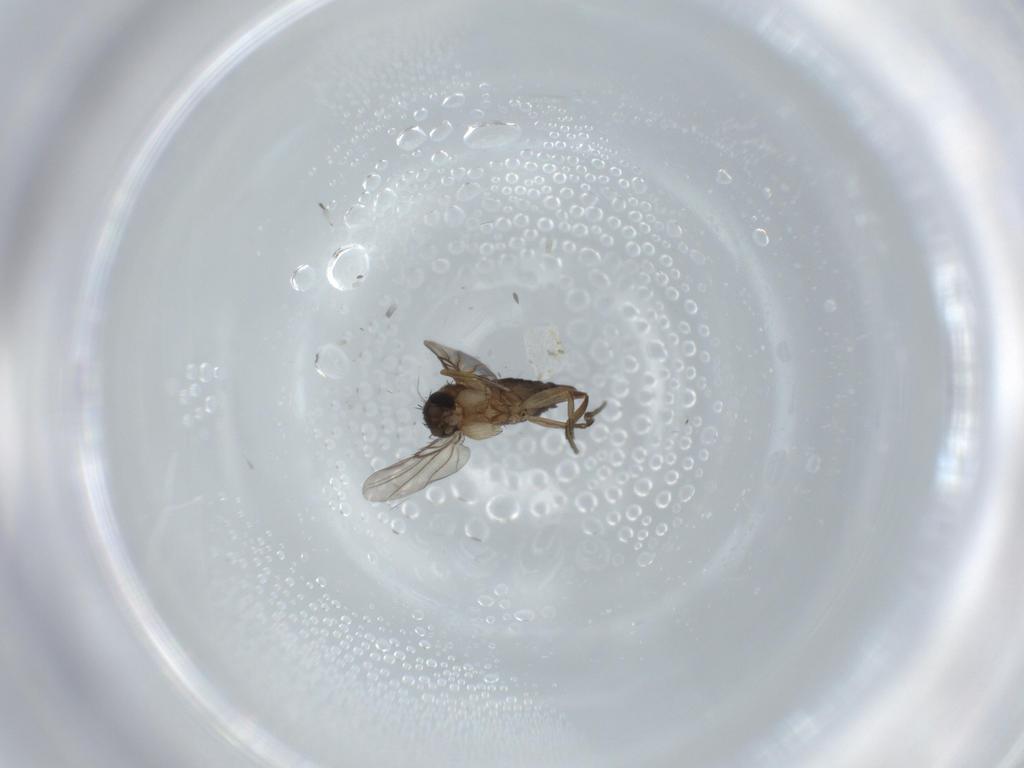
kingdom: Animalia
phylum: Arthropoda
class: Insecta
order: Diptera
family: Phoridae
